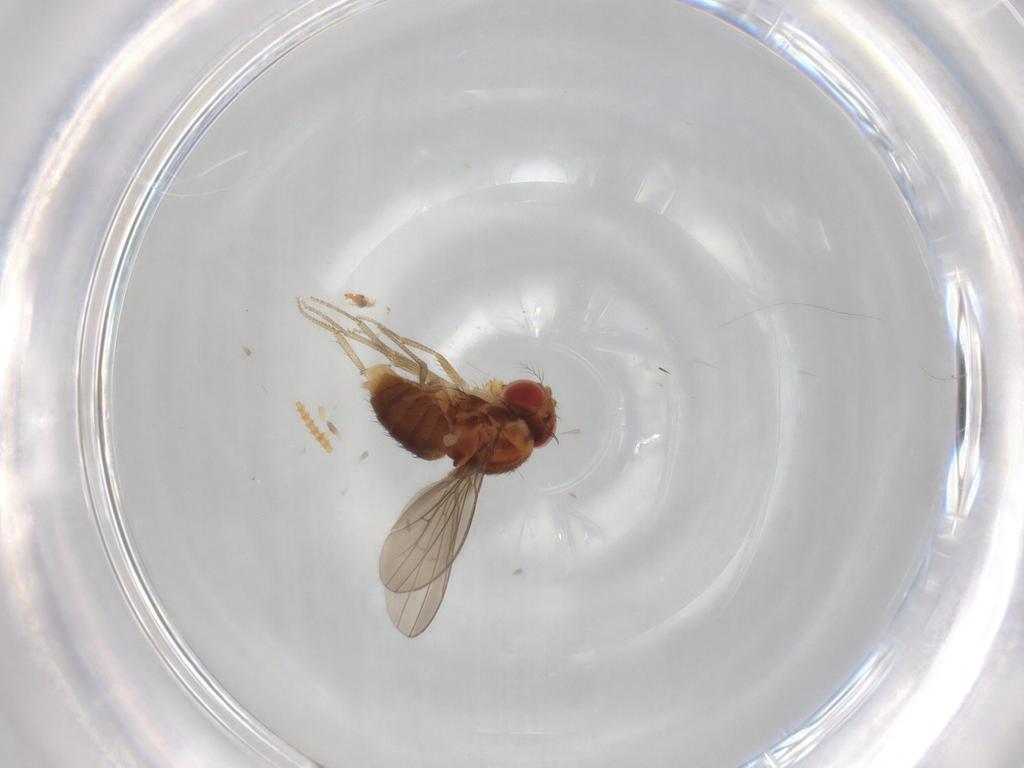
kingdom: Animalia
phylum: Arthropoda
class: Insecta
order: Diptera
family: Drosophilidae
